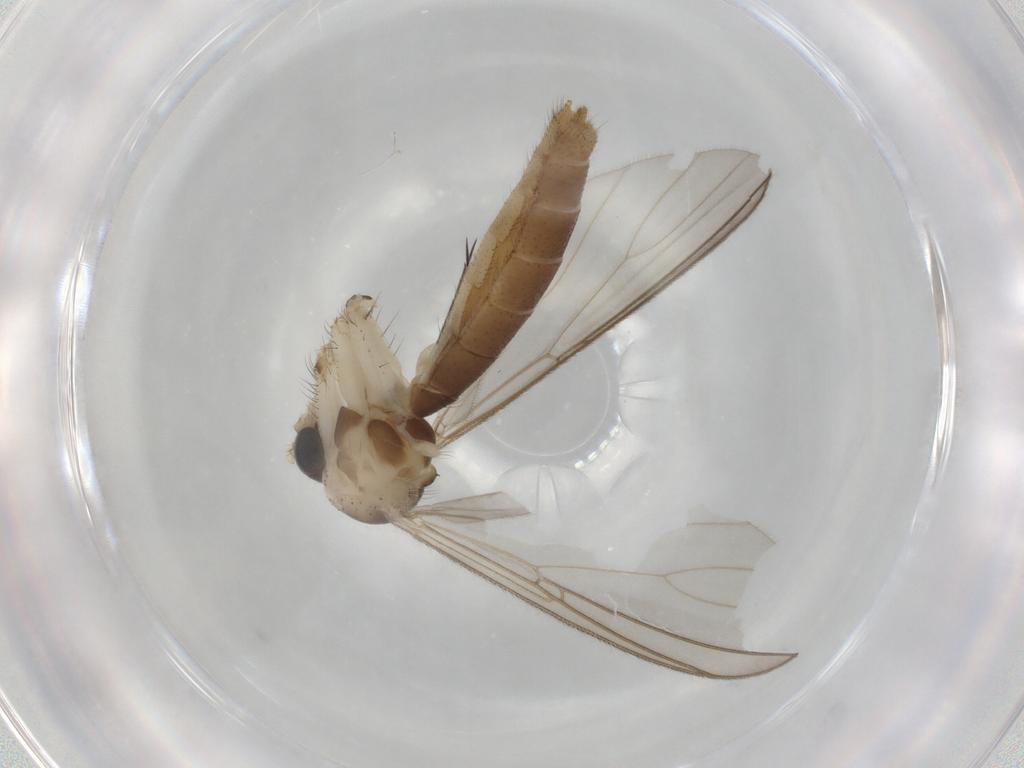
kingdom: Animalia
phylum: Arthropoda
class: Insecta
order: Diptera
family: Mycetophilidae
